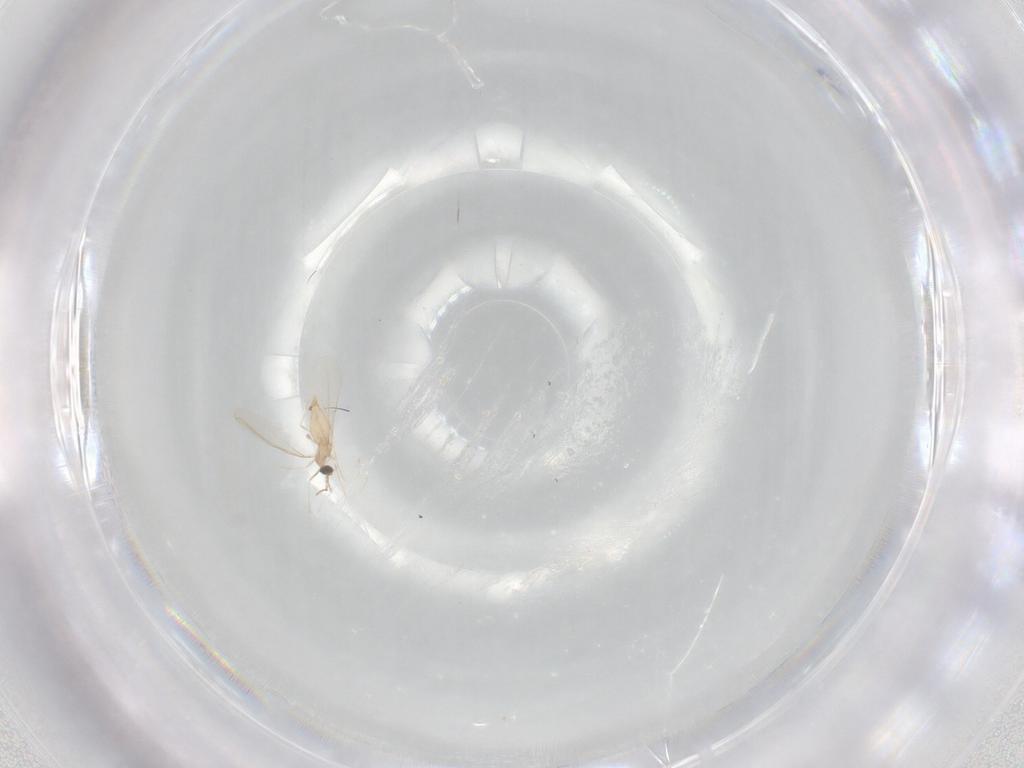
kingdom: Animalia
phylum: Arthropoda
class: Insecta
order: Diptera
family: Cecidomyiidae
